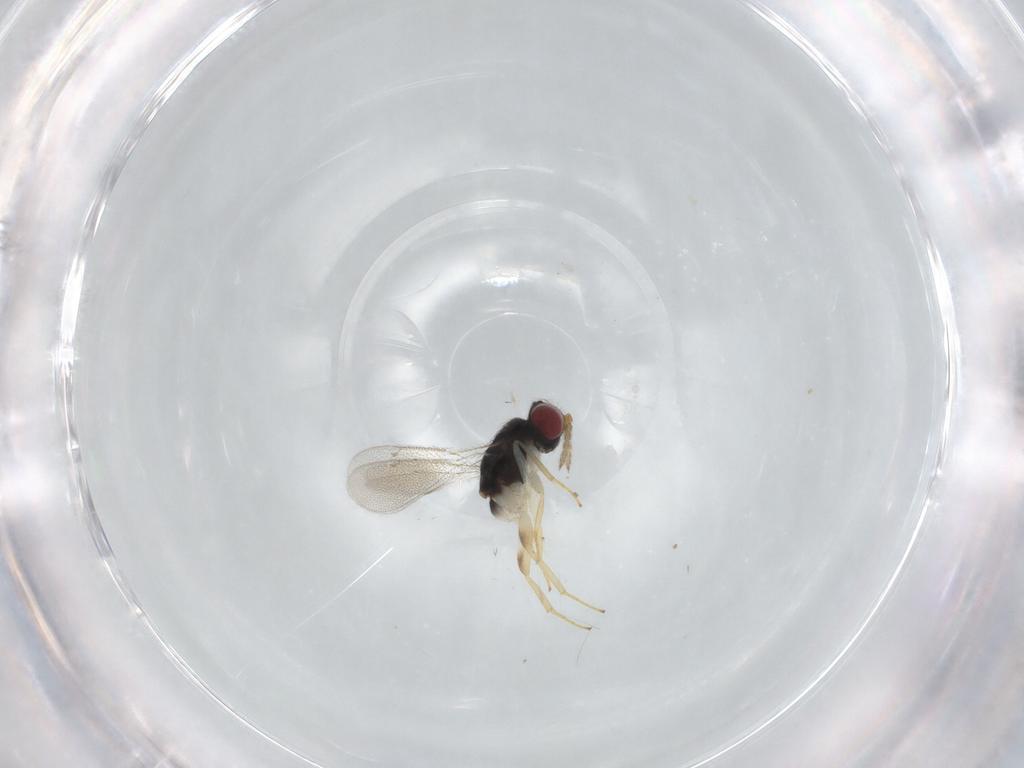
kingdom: Animalia
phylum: Arthropoda
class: Insecta
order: Hymenoptera
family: Eulophidae
